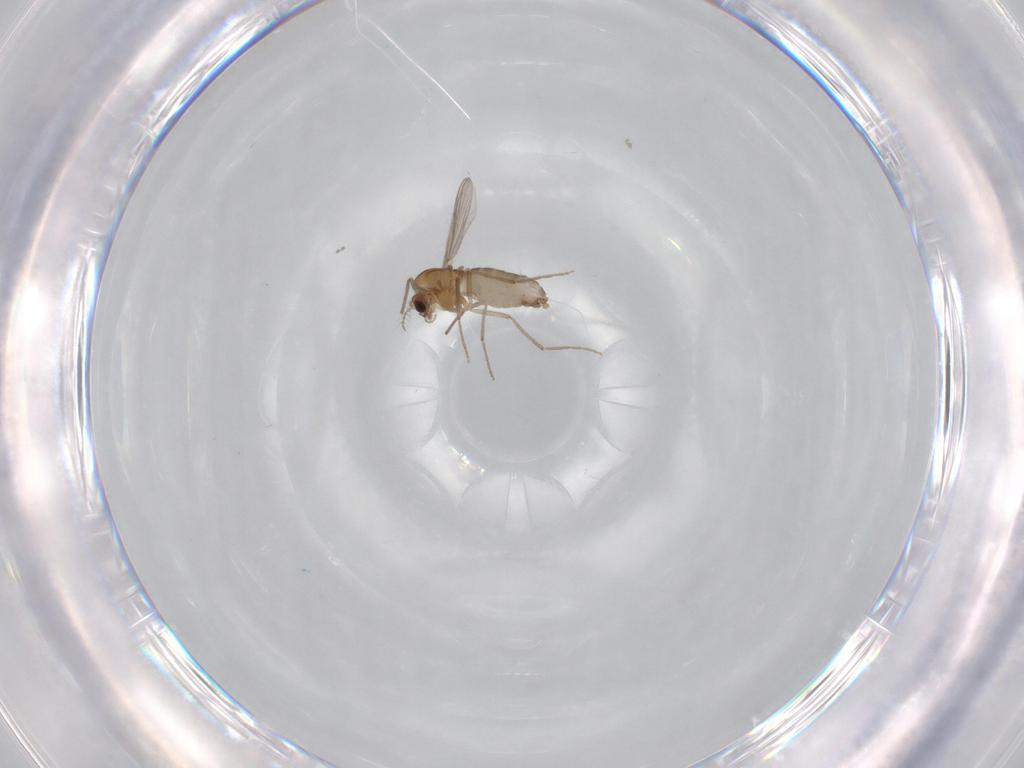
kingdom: Animalia
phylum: Arthropoda
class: Insecta
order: Diptera
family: Chironomidae
